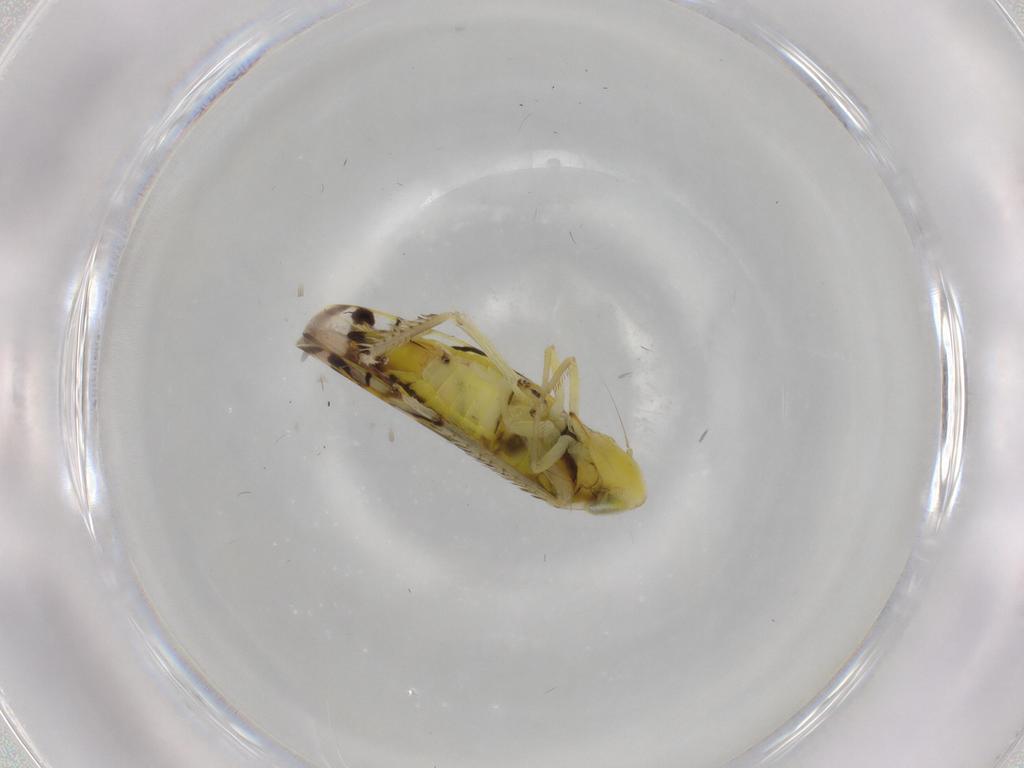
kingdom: Animalia
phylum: Arthropoda
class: Insecta
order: Hemiptera
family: Cicadellidae
